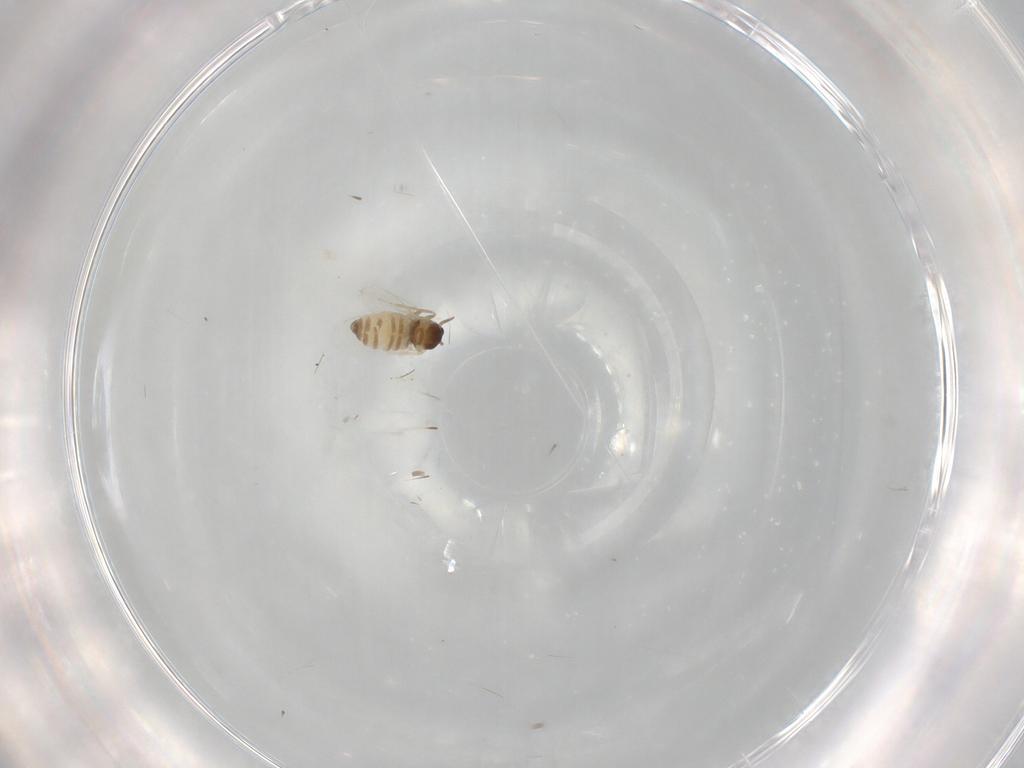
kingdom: Animalia
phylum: Arthropoda
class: Insecta
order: Diptera
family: Cecidomyiidae
